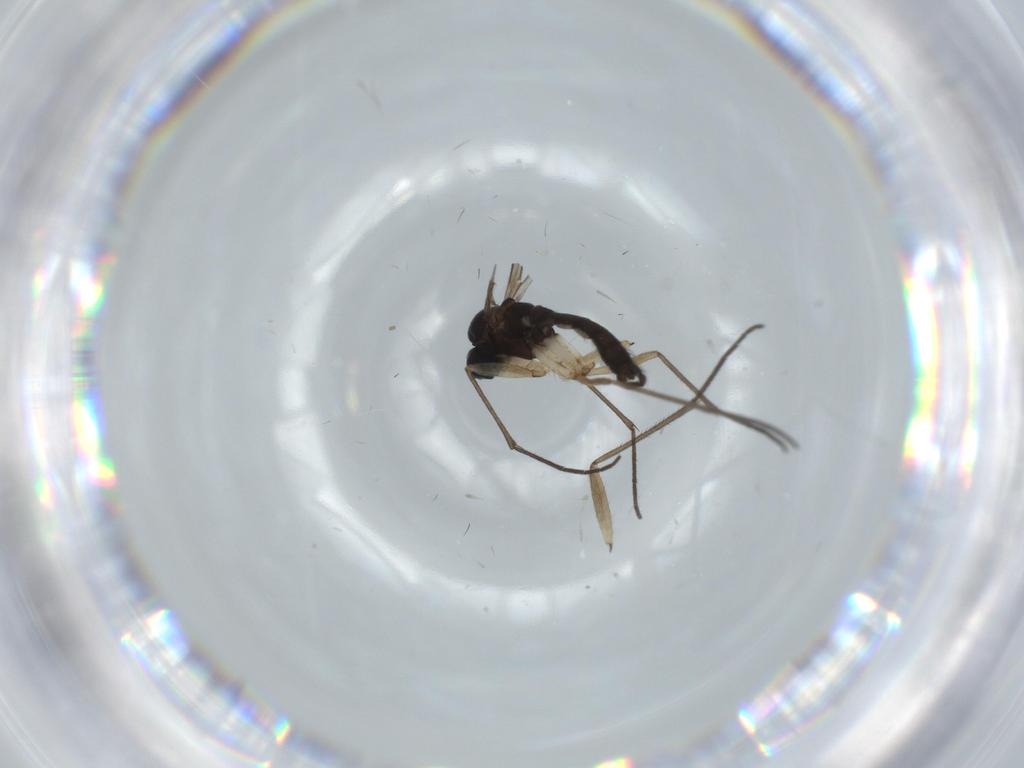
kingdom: Animalia
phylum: Arthropoda
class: Insecta
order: Diptera
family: Sciaridae
